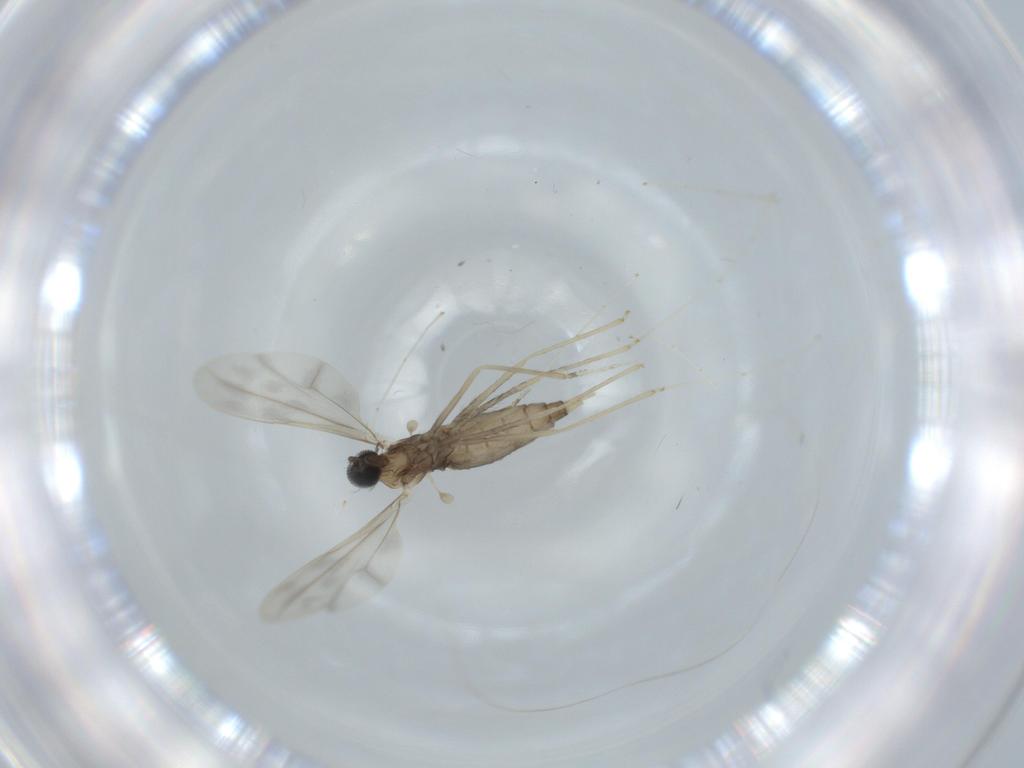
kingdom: Animalia
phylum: Arthropoda
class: Insecta
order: Diptera
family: Cecidomyiidae
